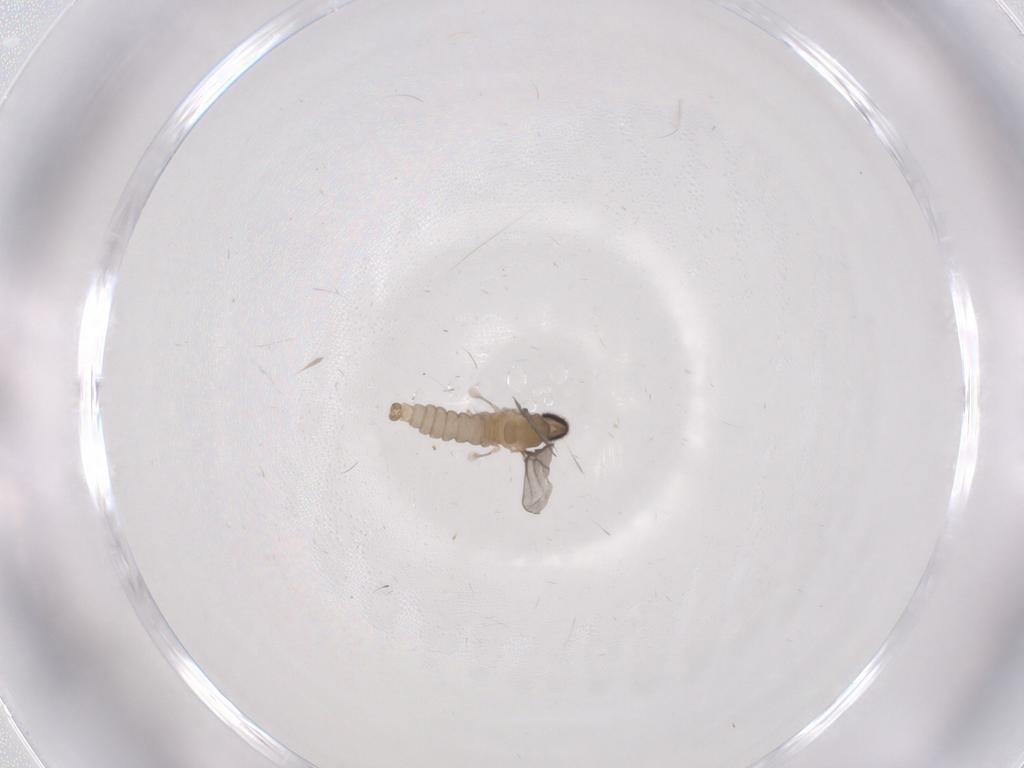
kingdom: Animalia
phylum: Arthropoda
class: Insecta
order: Diptera
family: Cecidomyiidae
